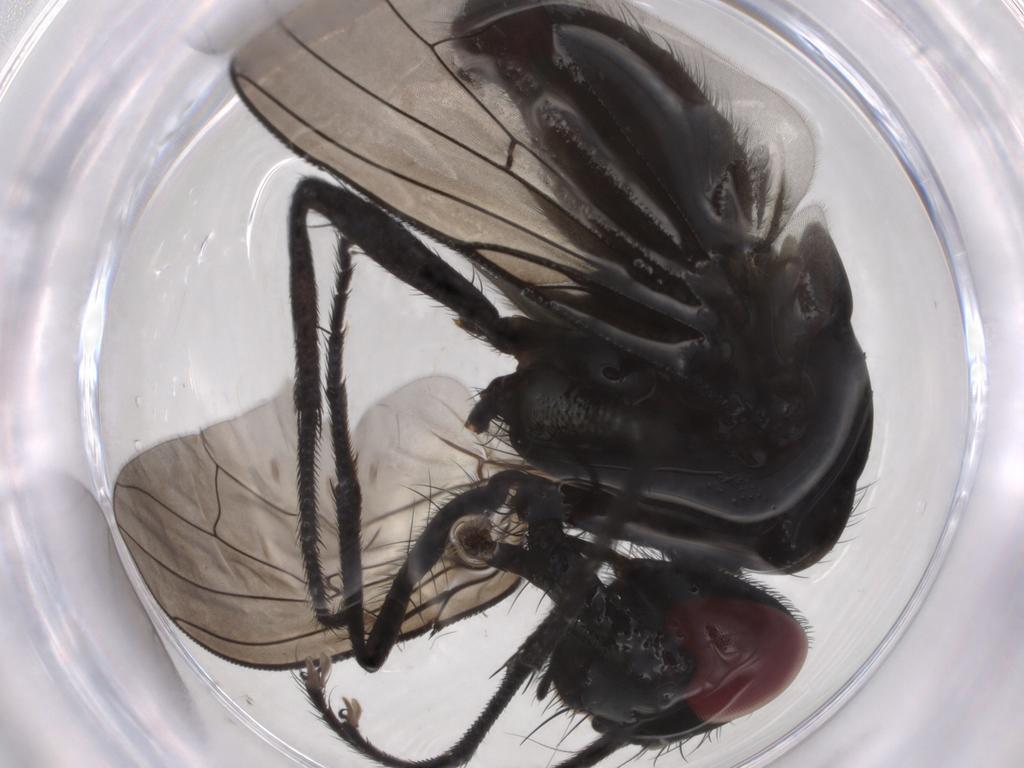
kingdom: Animalia
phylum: Arthropoda
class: Insecta
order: Diptera
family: Muscidae
